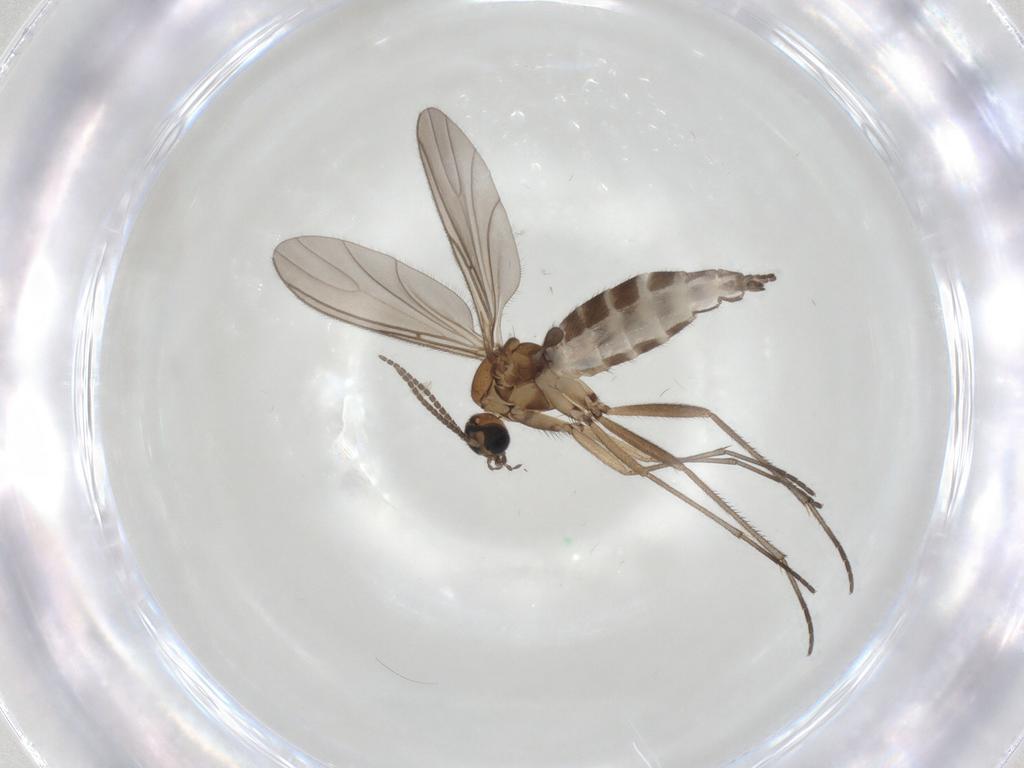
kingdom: Animalia
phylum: Arthropoda
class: Insecta
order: Diptera
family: Sciaridae
